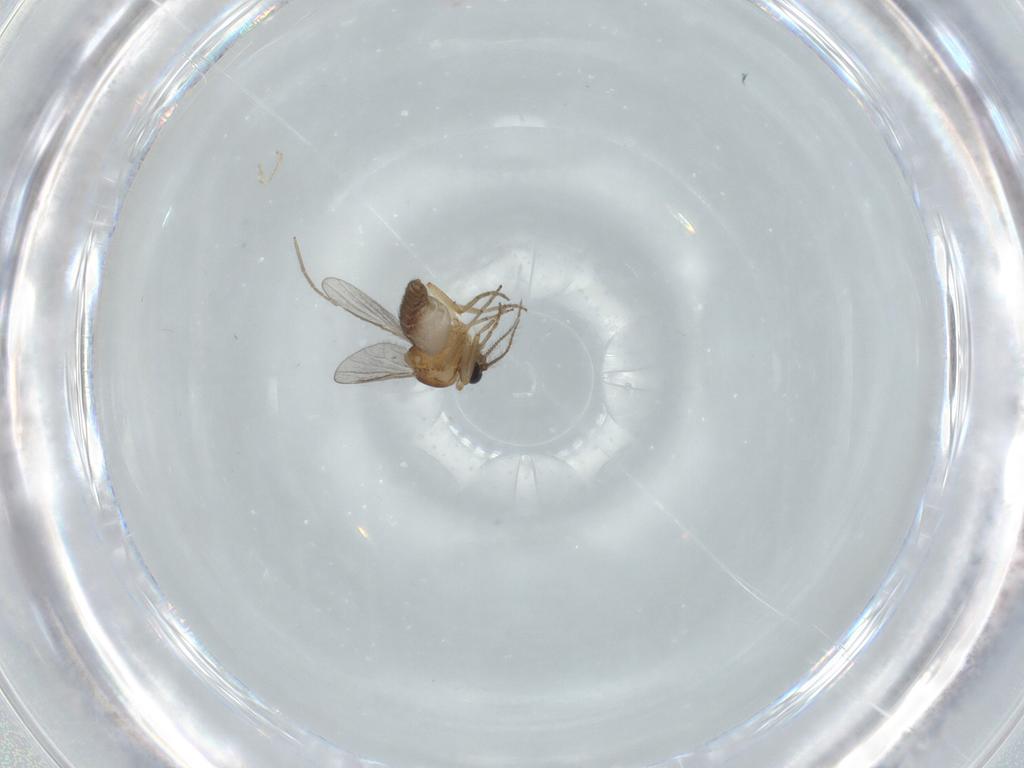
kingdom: Animalia
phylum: Arthropoda
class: Insecta
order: Diptera
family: Ceratopogonidae
